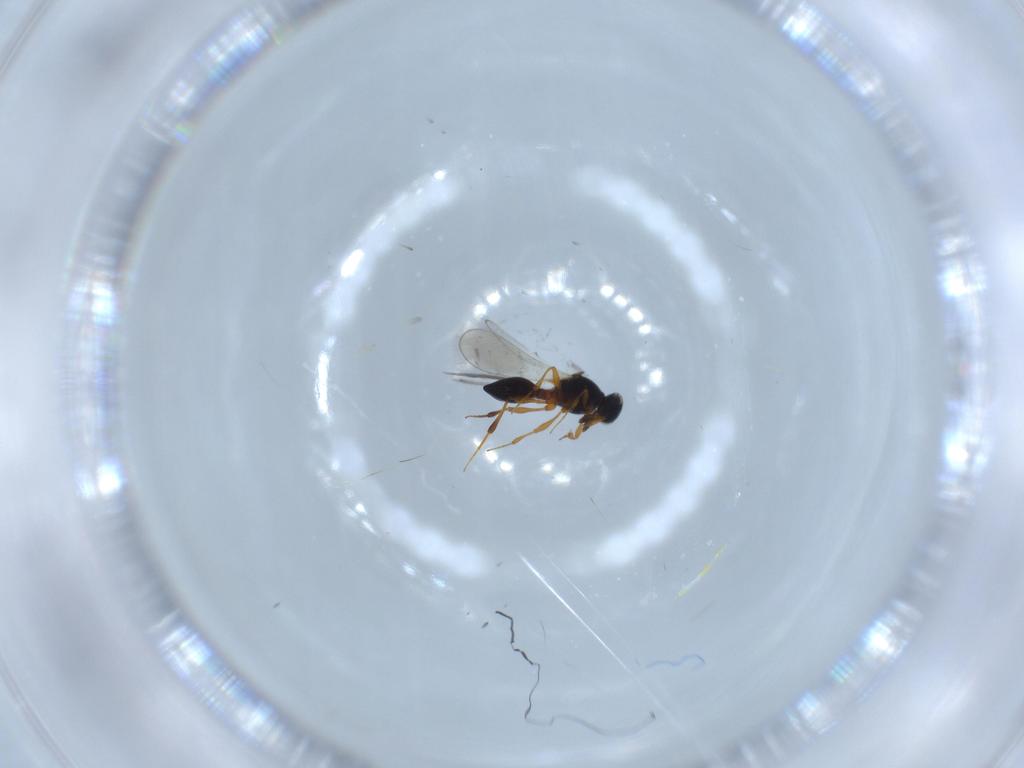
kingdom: Animalia
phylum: Arthropoda
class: Insecta
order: Hymenoptera
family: Platygastridae
